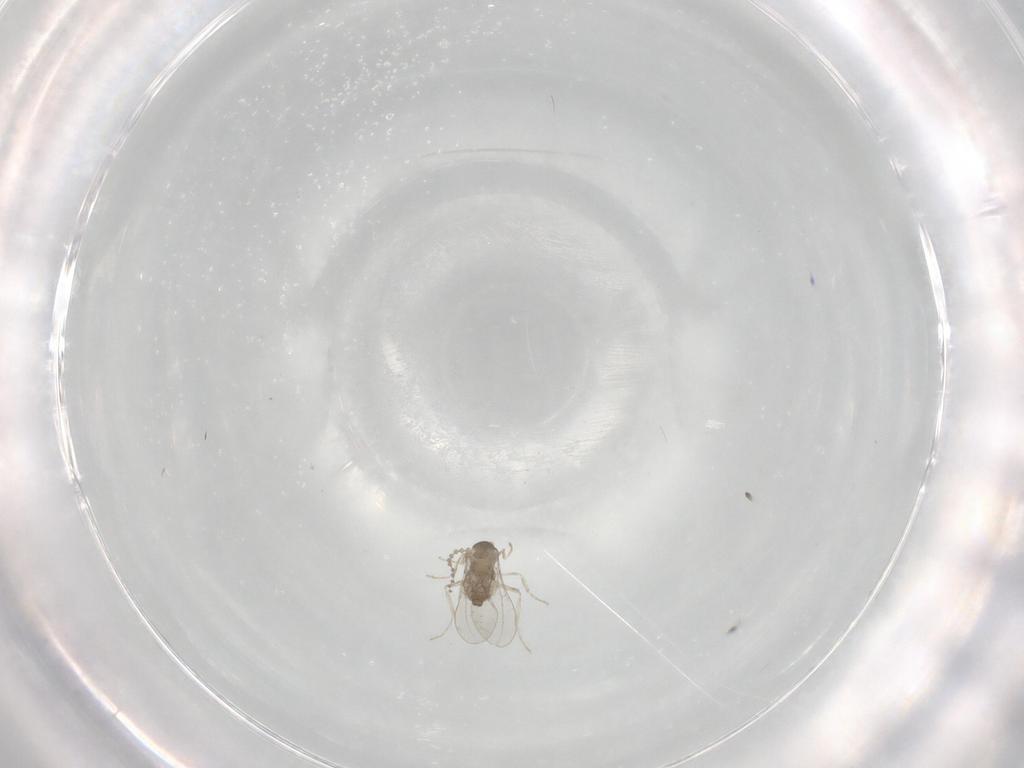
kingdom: Animalia
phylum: Arthropoda
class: Insecta
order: Diptera
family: Cecidomyiidae
